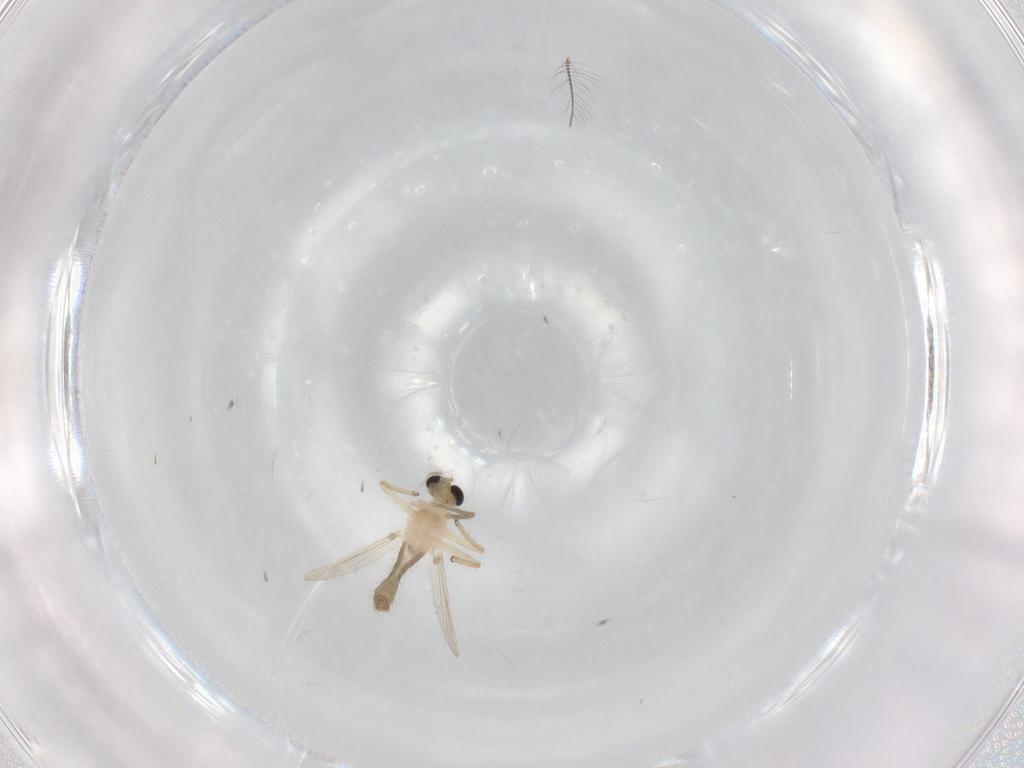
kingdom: Animalia
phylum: Arthropoda
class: Insecta
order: Diptera
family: Chironomidae
